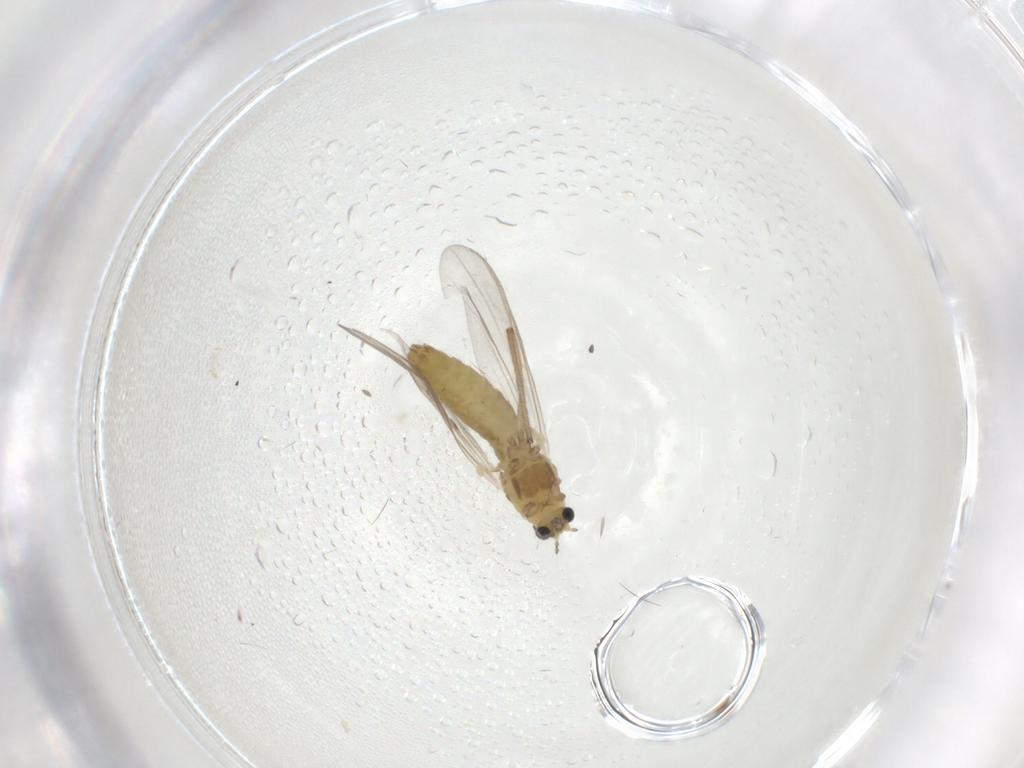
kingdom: Animalia
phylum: Arthropoda
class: Insecta
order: Diptera
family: Chironomidae
